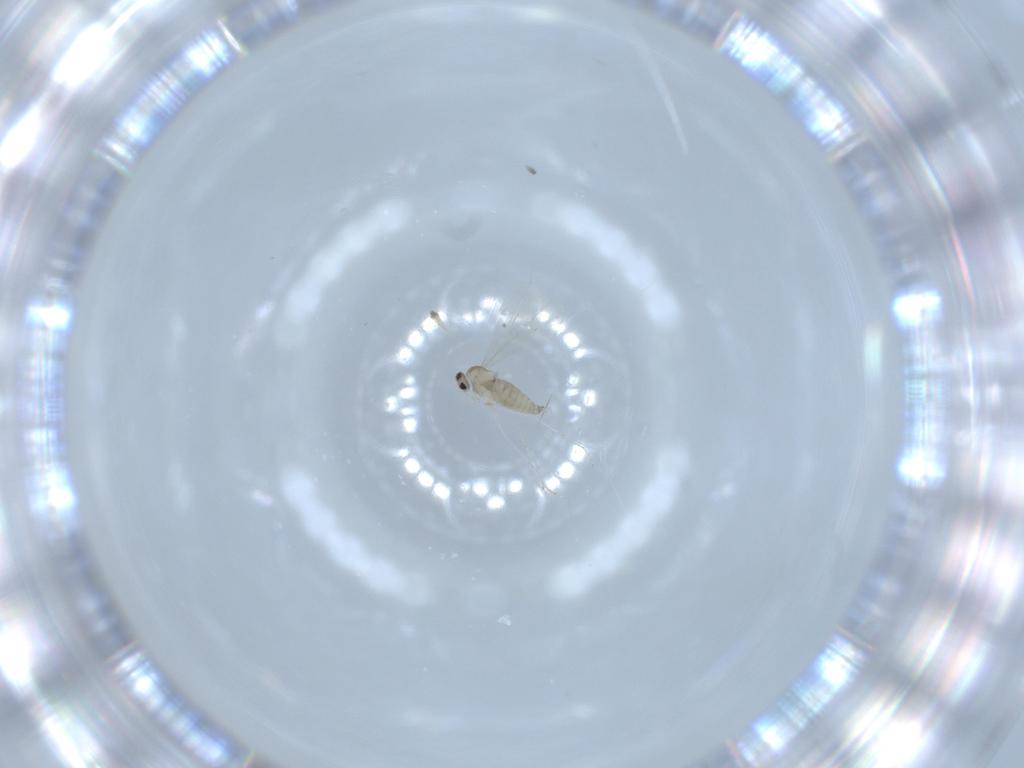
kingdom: Animalia
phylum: Arthropoda
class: Insecta
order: Diptera
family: Cecidomyiidae
